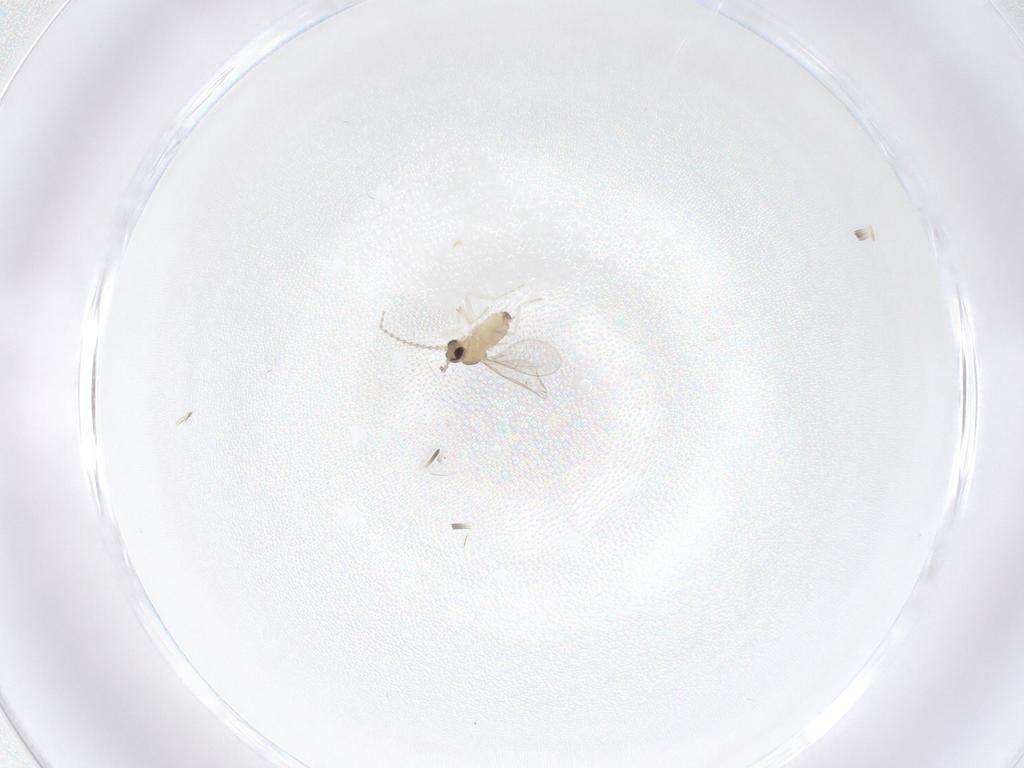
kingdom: Animalia
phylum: Arthropoda
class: Insecta
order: Diptera
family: Cecidomyiidae
